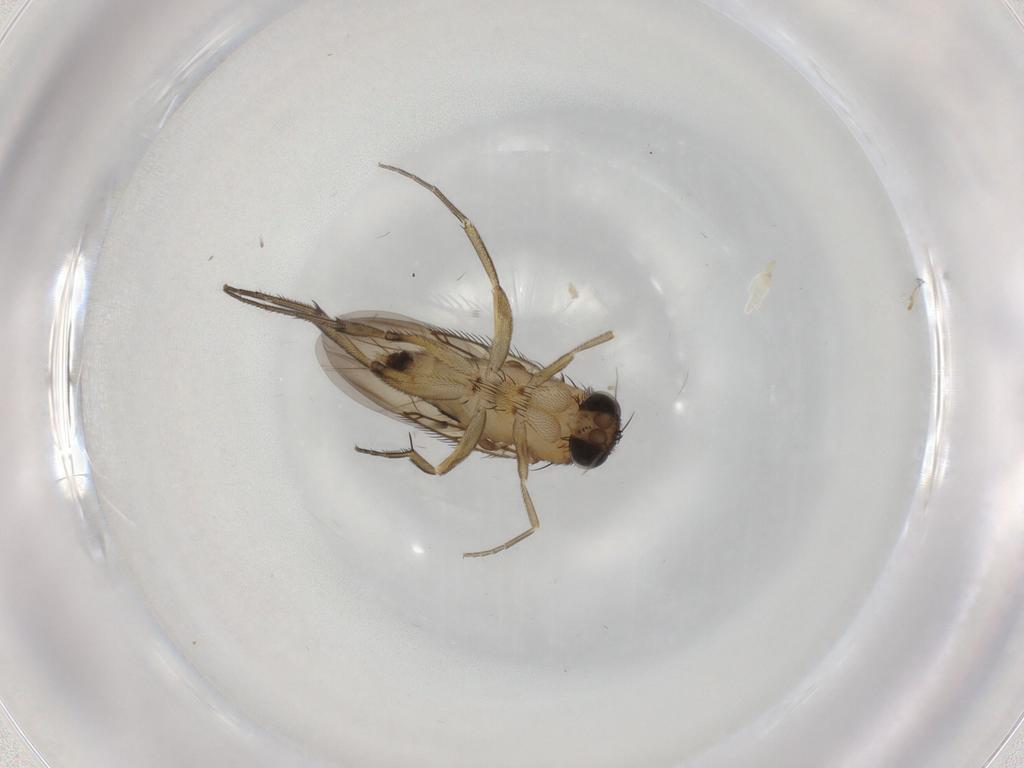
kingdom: Animalia
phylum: Arthropoda
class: Insecta
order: Diptera
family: Phoridae
